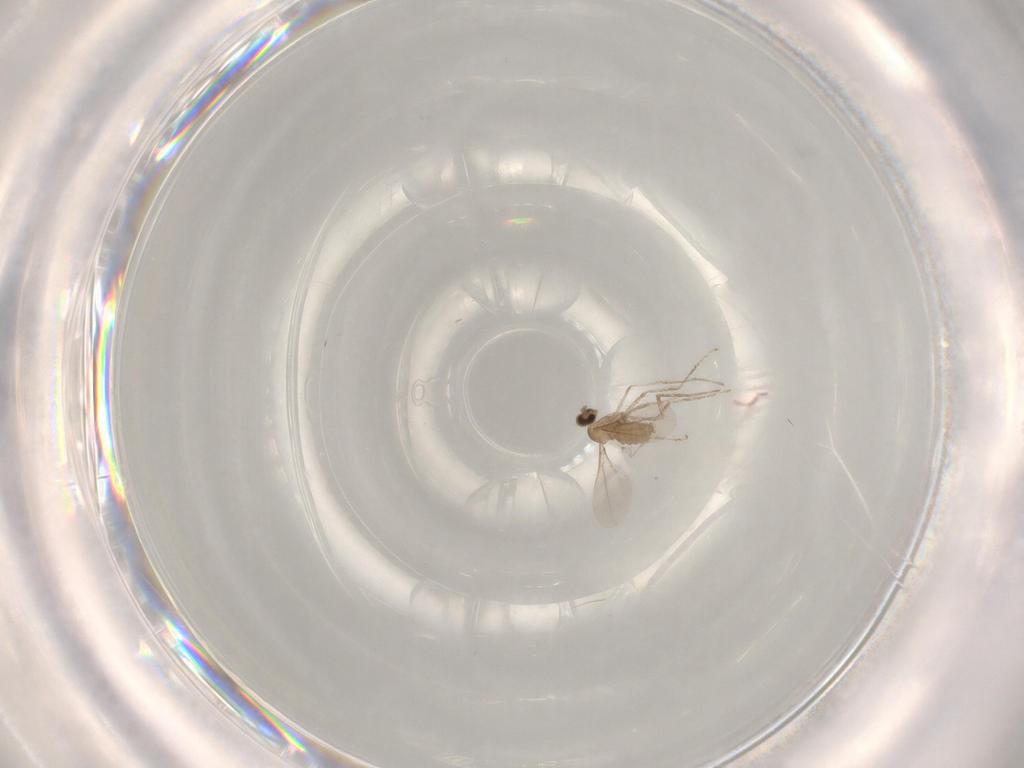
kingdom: Animalia
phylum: Arthropoda
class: Insecta
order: Diptera
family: Cecidomyiidae
